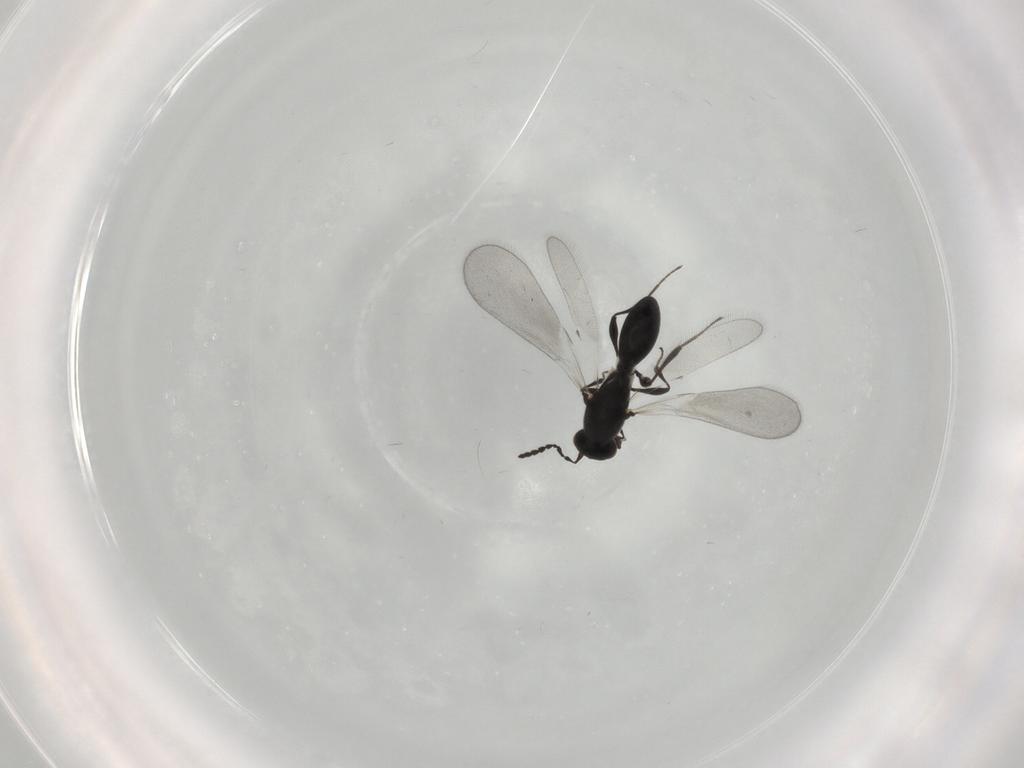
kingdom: Animalia
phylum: Arthropoda
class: Insecta
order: Hymenoptera
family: Platygastridae
